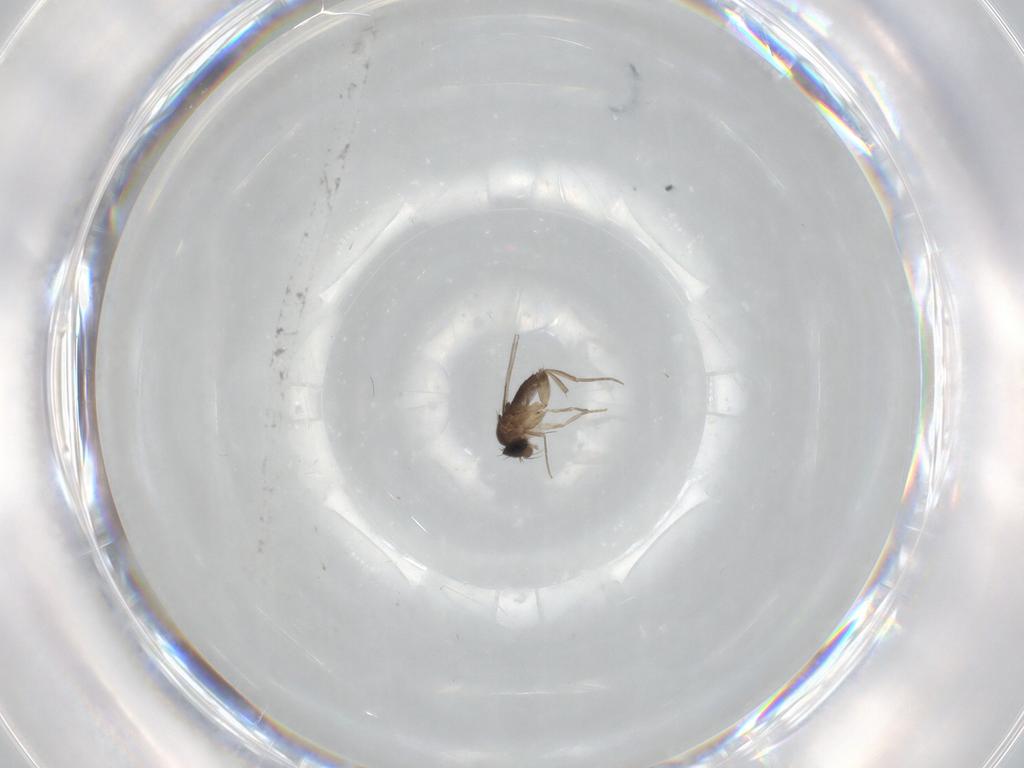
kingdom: Animalia
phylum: Arthropoda
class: Insecta
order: Diptera
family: Phoridae
